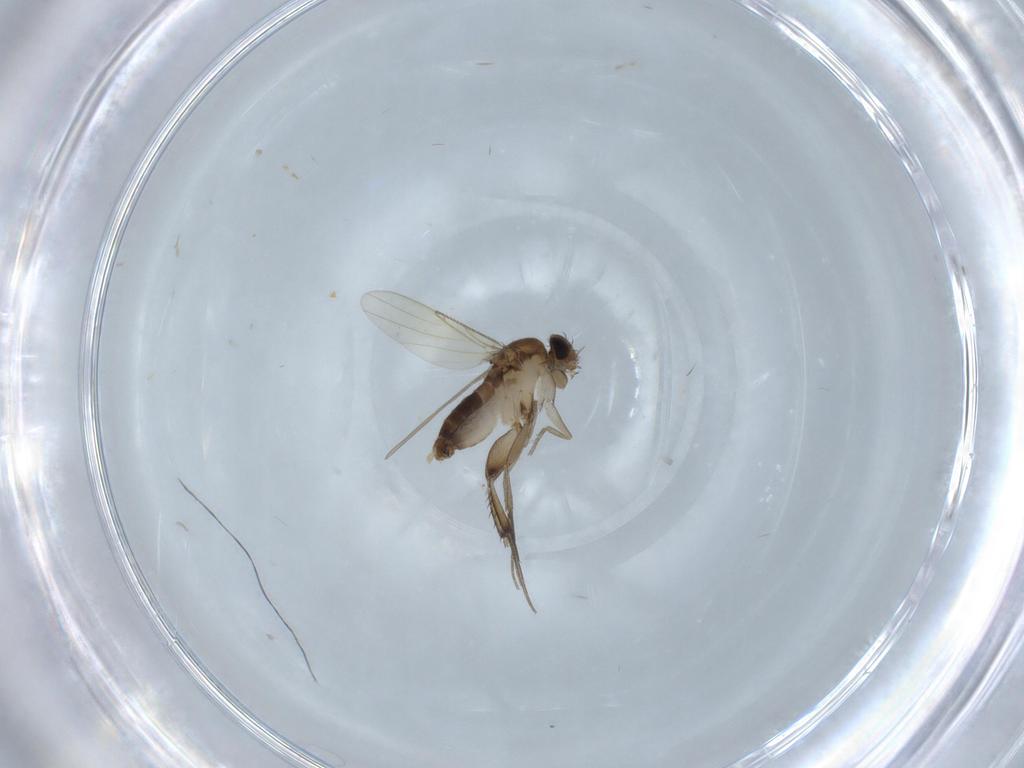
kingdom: Animalia
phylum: Arthropoda
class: Insecta
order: Diptera
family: Phoridae
